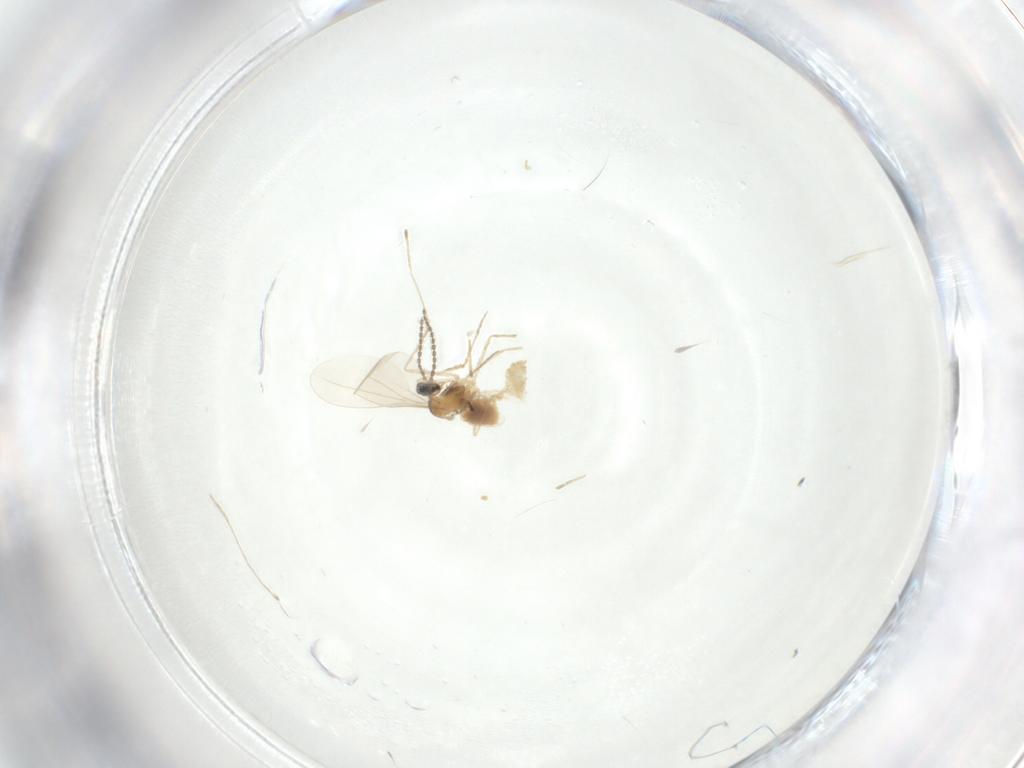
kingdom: Animalia
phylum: Arthropoda
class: Insecta
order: Diptera
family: Cecidomyiidae
